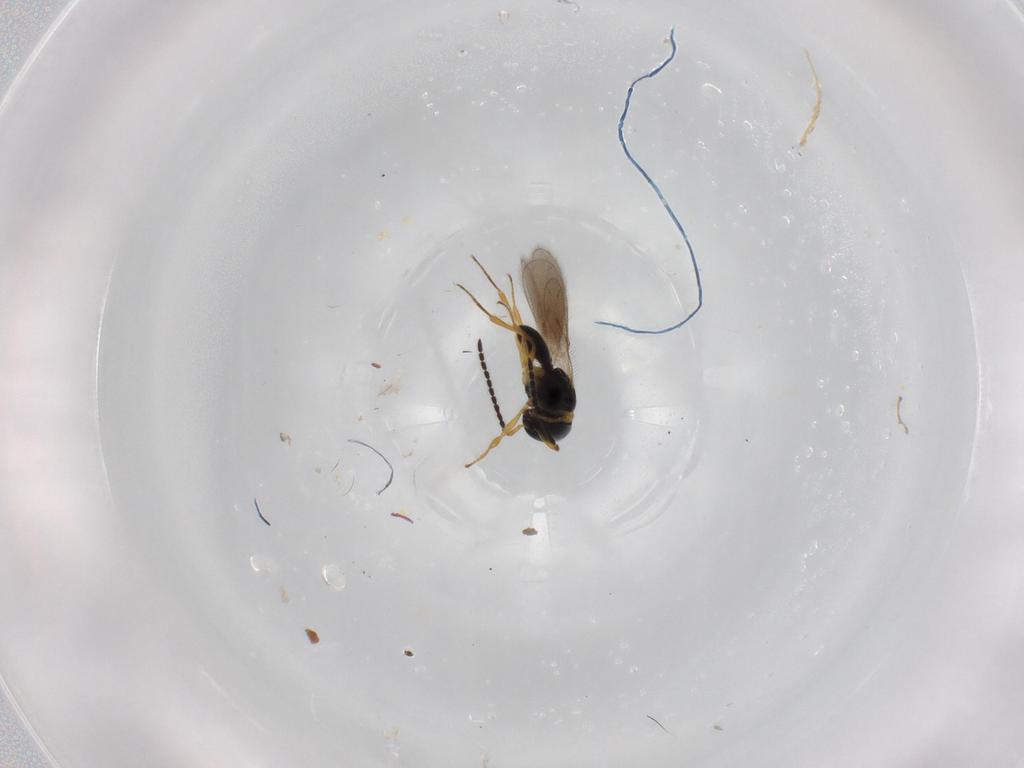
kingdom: Animalia
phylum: Arthropoda
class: Insecta
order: Hymenoptera
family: Scelionidae
